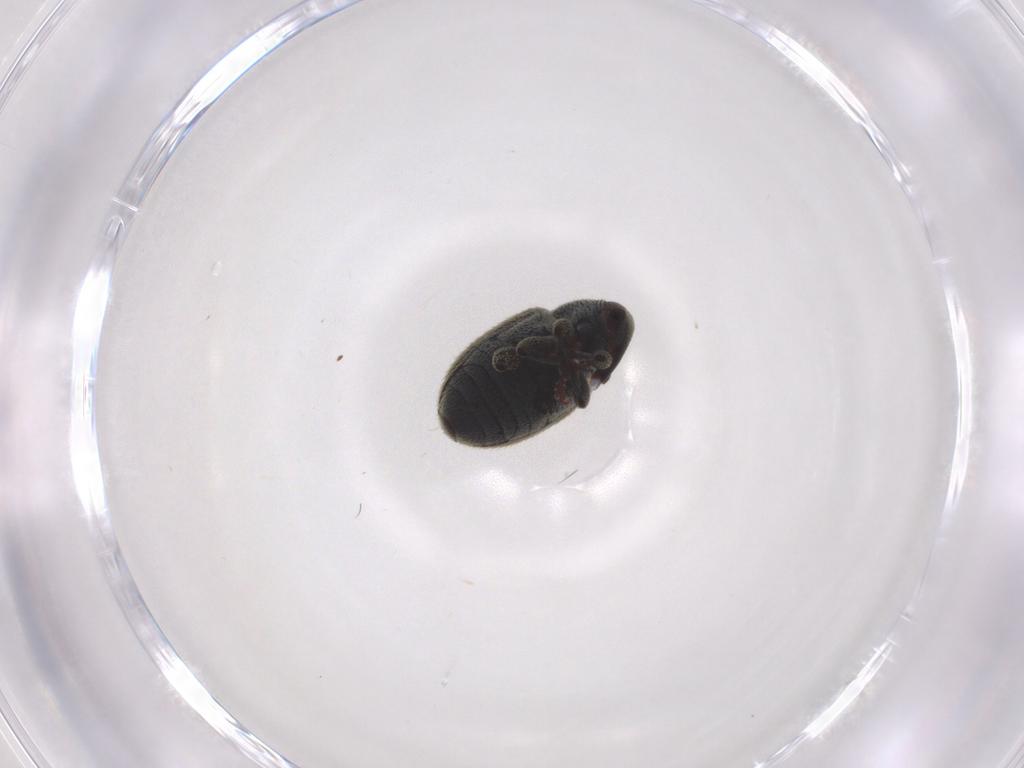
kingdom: Animalia
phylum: Arthropoda
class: Insecta
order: Coleoptera
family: Curculionidae
